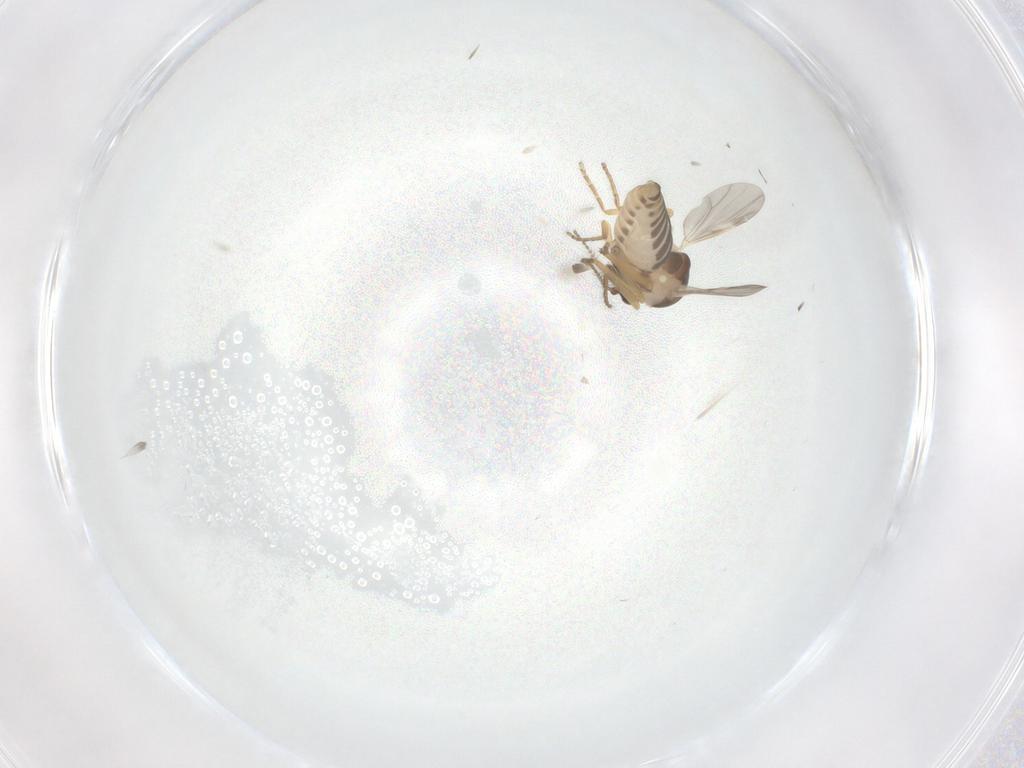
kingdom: Animalia
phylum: Arthropoda
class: Insecta
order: Diptera
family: Ceratopogonidae
